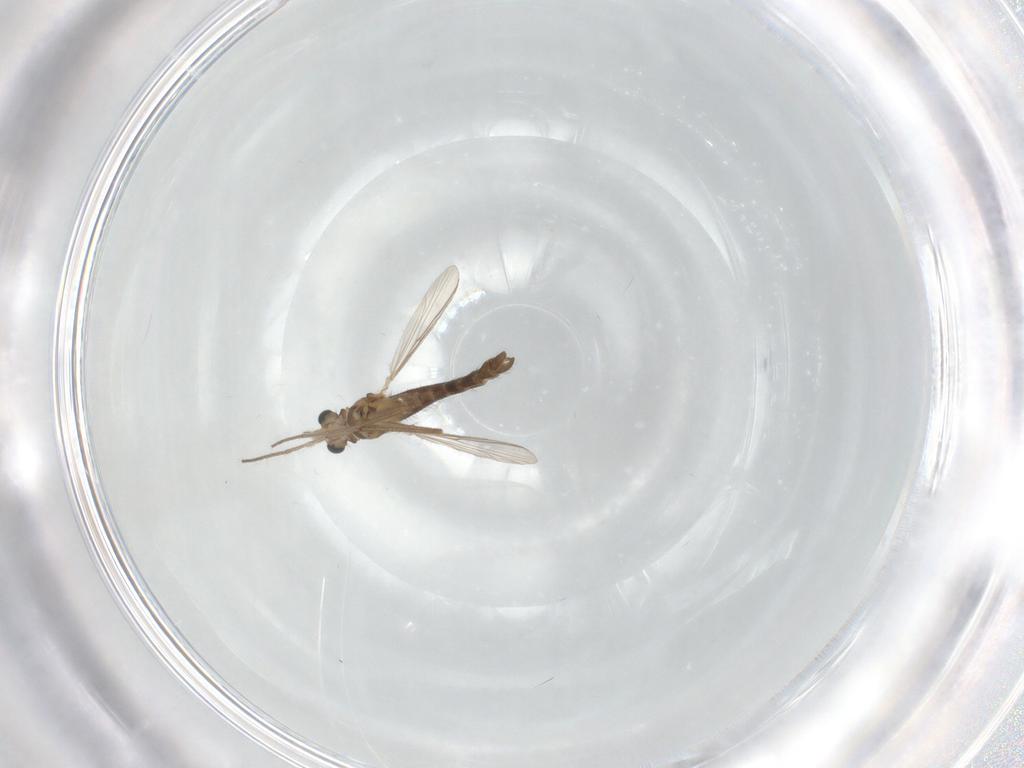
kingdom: Animalia
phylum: Arthropoda
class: Insecta
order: Diptera
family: Chironomidae
